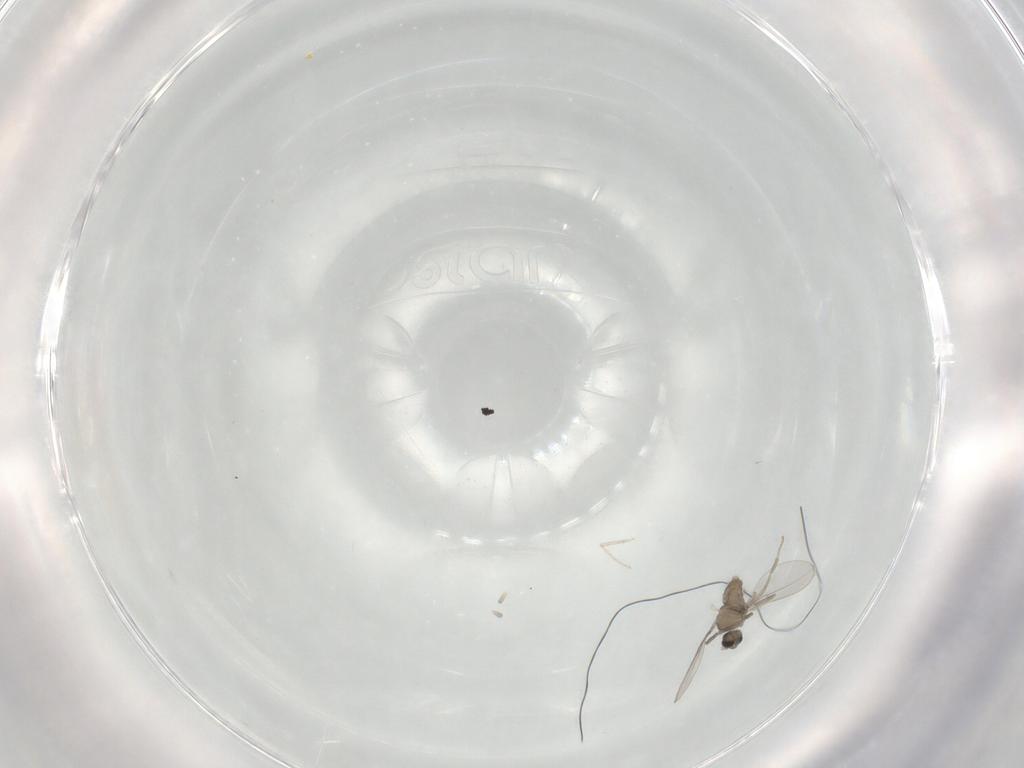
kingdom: Animalia
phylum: Arthropoda
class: Insecta
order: Diptera
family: Cecidomyiidae
